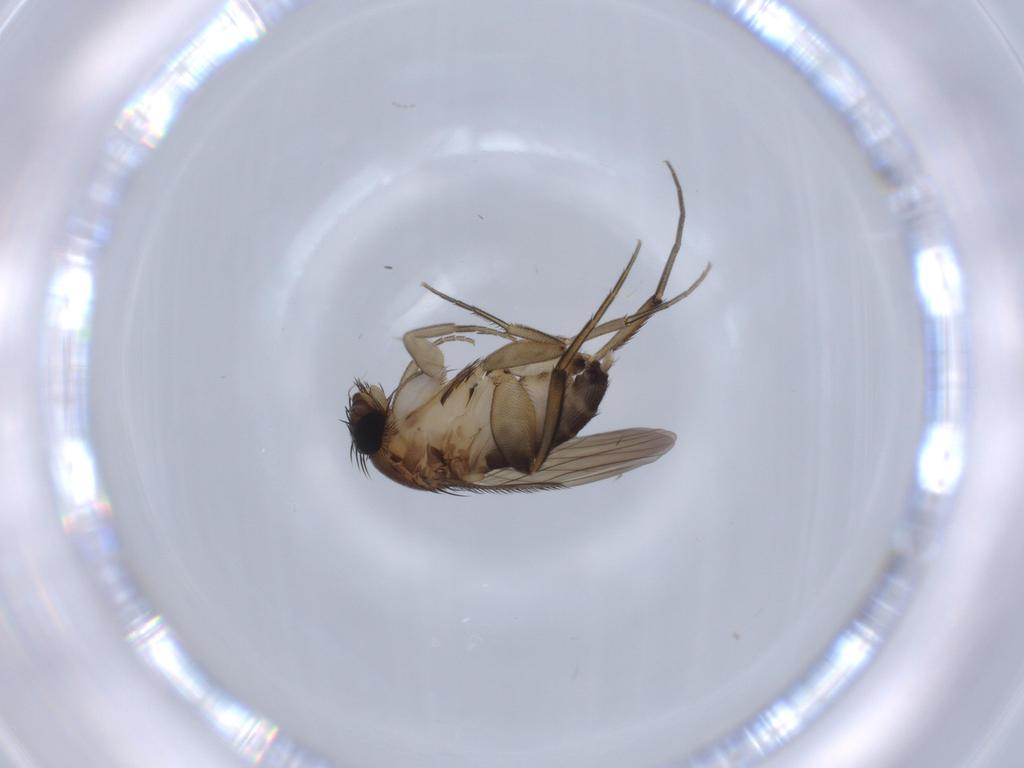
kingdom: Animalia
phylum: Arthropoda
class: Insecta
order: Diptera
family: Phoridae
